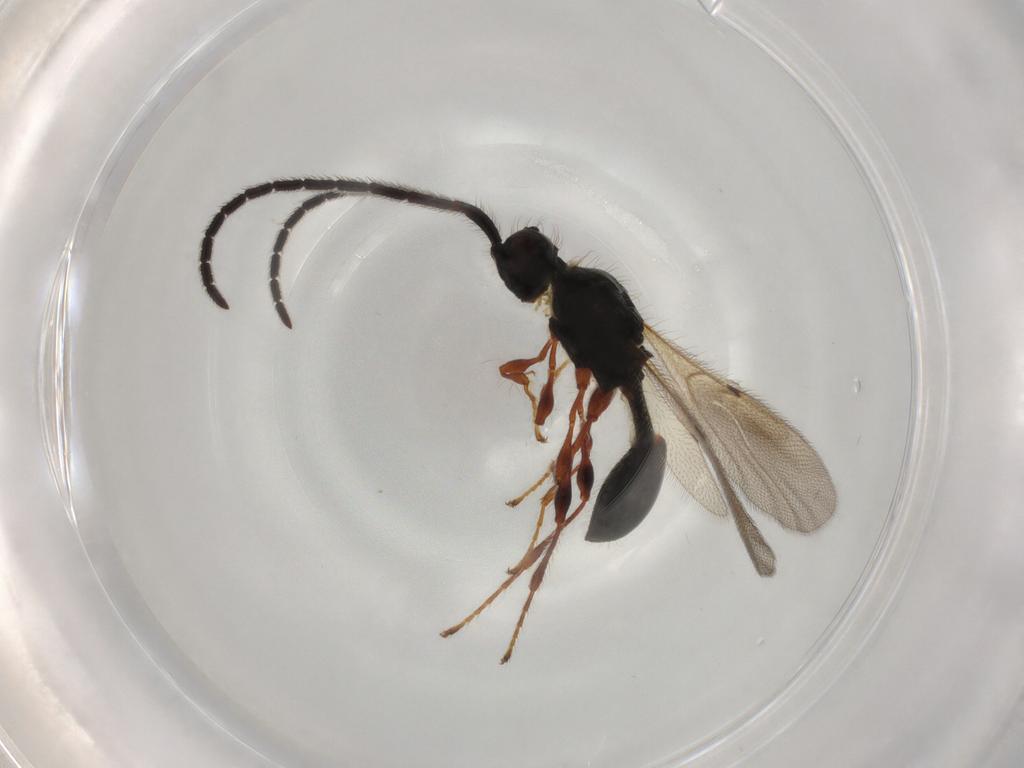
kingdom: Animalia
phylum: Arthropoda
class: Insecta
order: Hymenoptera
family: Diapriidae
